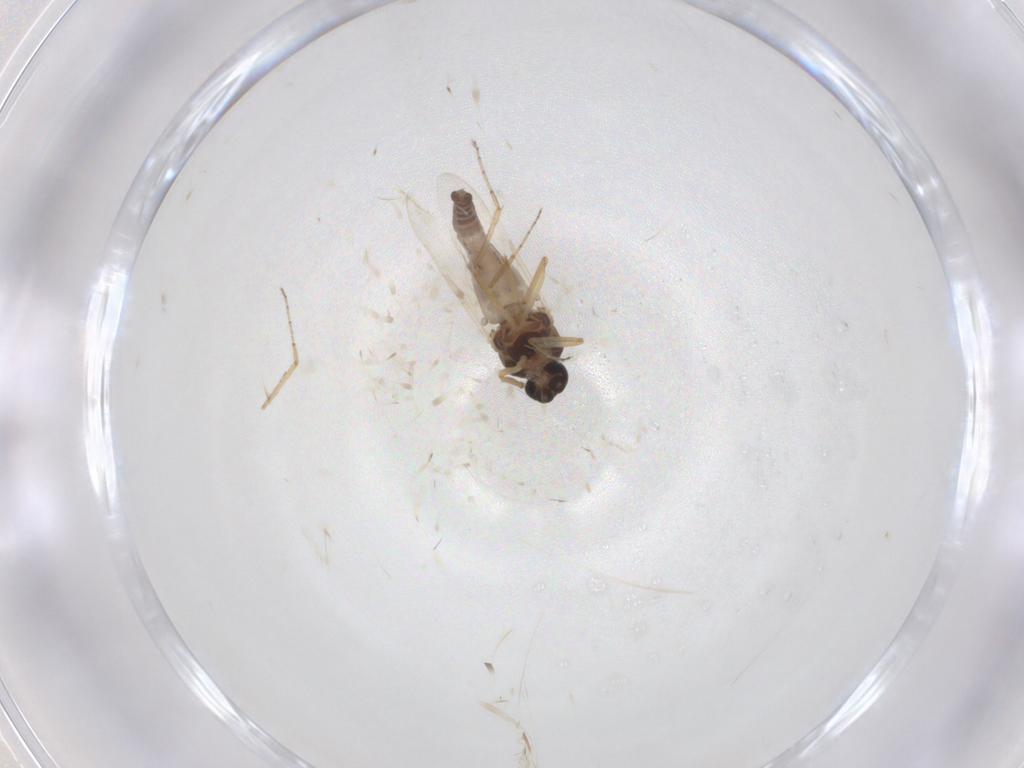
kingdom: Animalia
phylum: Arthropoda
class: Insecta
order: Diptera
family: Ceratopogonidae
